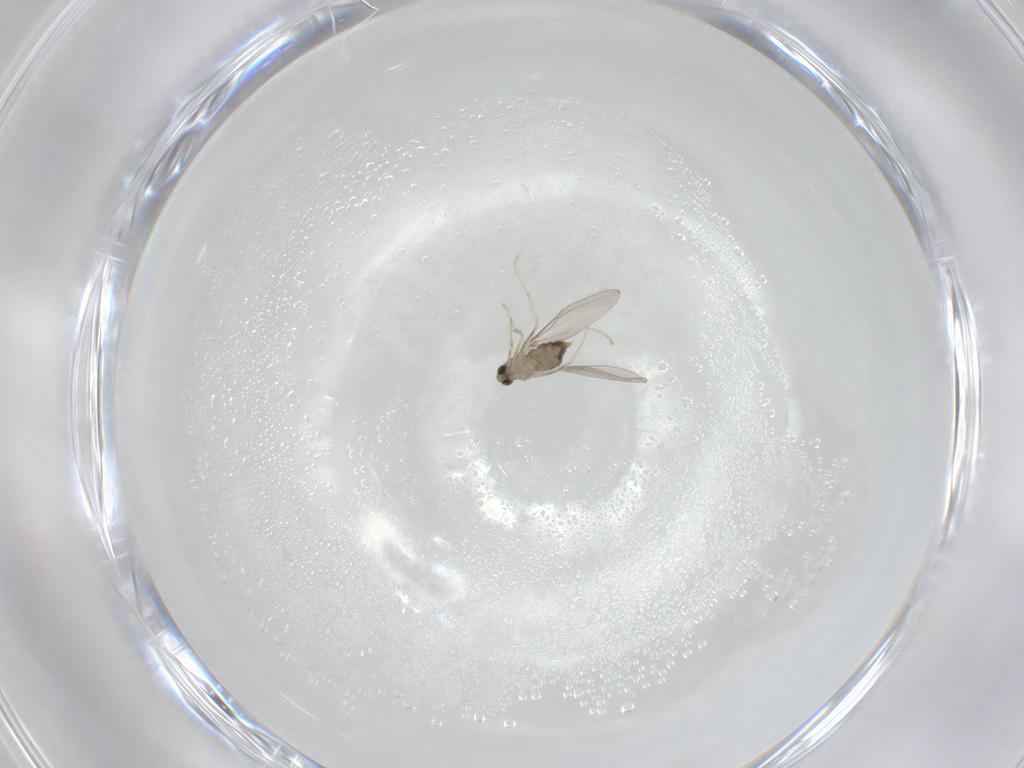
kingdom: Animalia
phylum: Arthropoda
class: Insecta
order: Diptera
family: Cecidomyiidae
